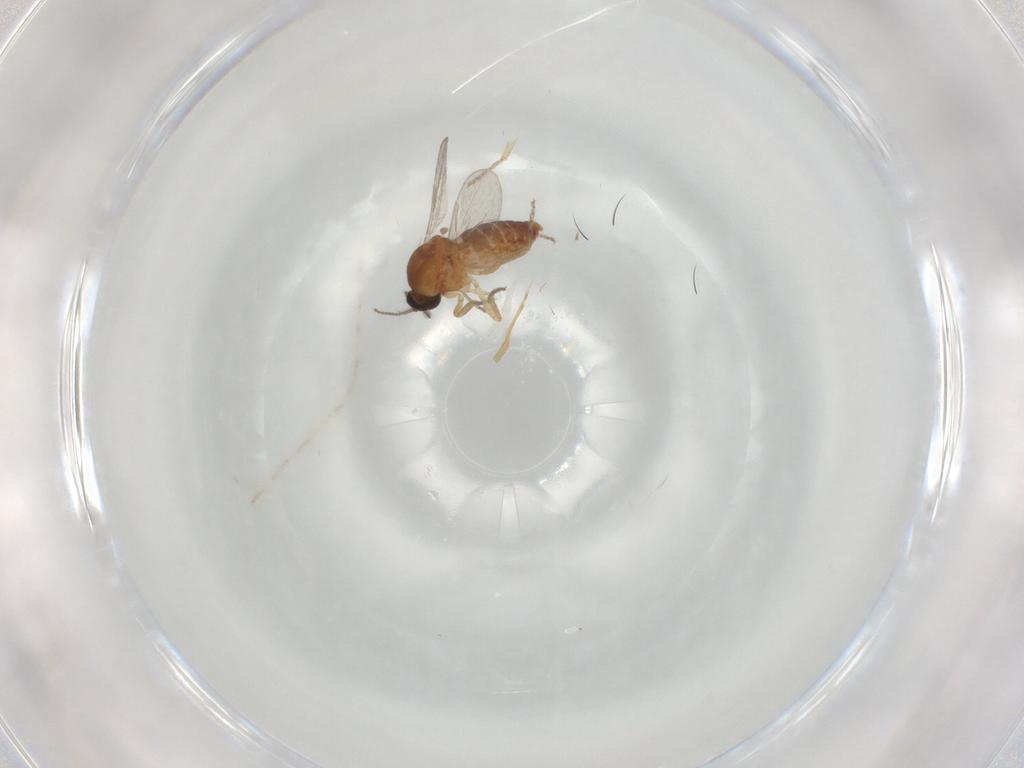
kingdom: Animalia
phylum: Arthropoda
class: Insecta
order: Diptera
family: Ceratopogonidae
